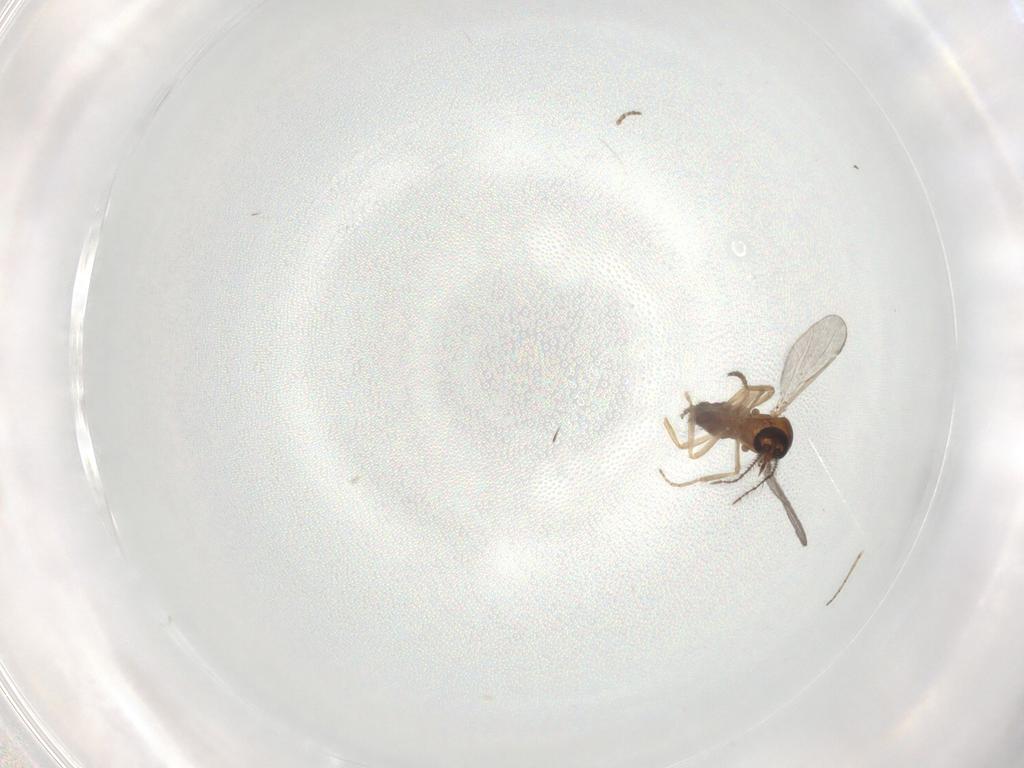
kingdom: Animalia
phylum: Arthropoda
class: Insecta
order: Diptera
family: Ceratopogonidae
